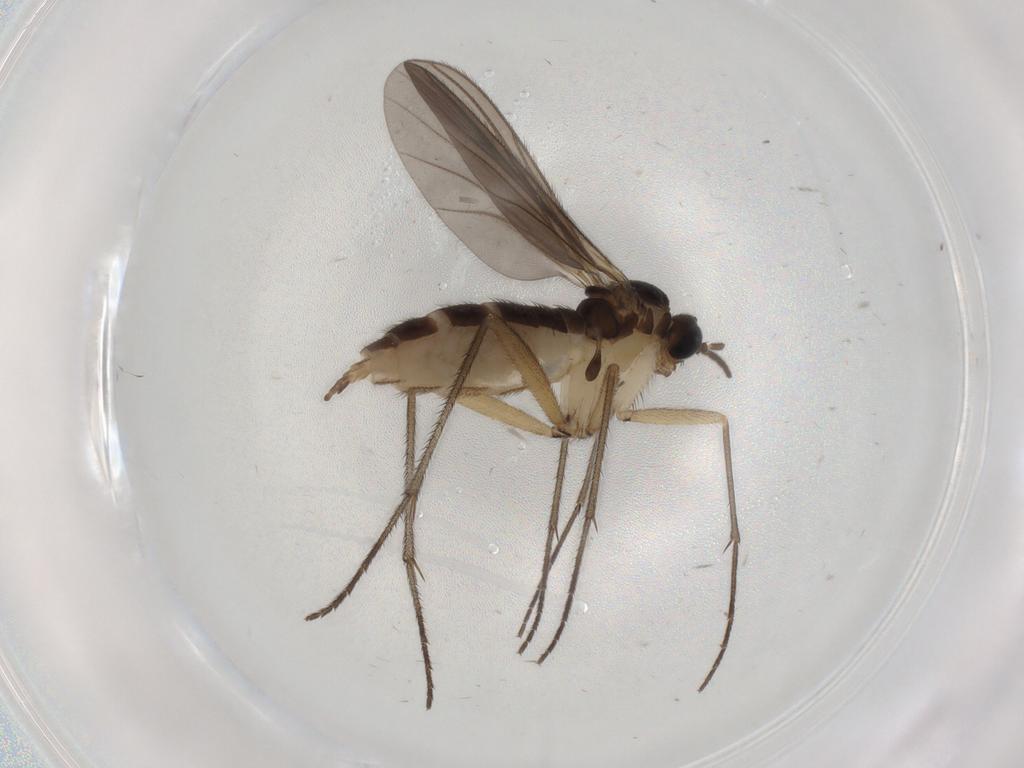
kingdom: Animalia
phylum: Arthropoda
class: Insecta
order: Diptera
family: Sciaridae
